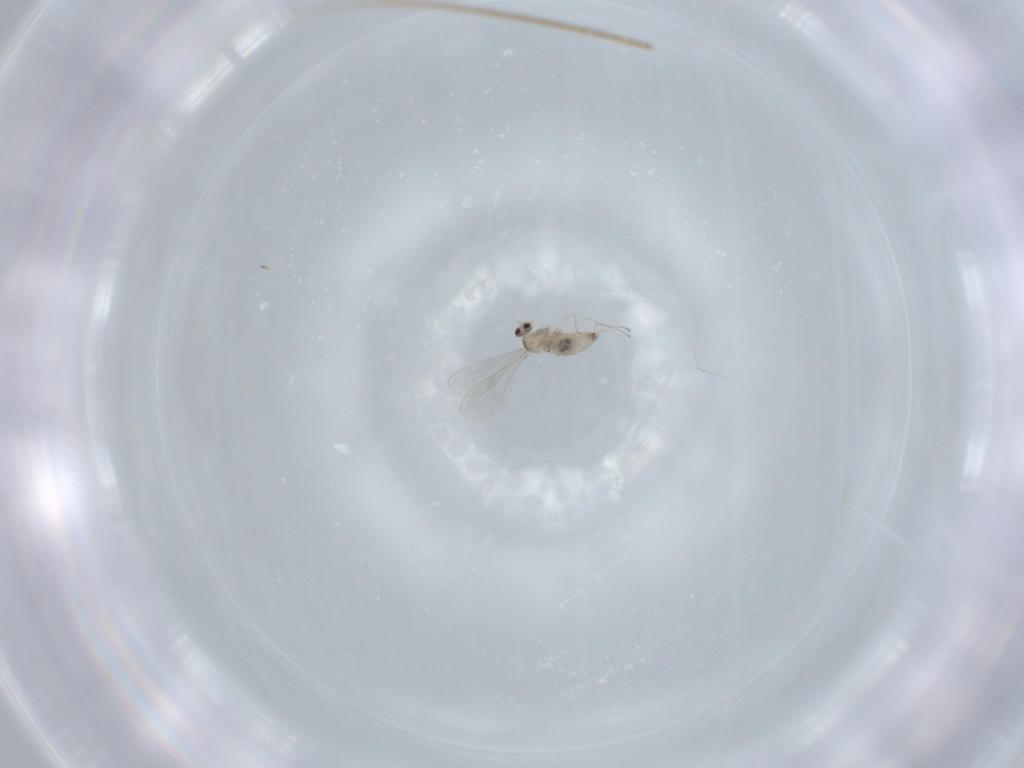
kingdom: Animalia
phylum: Arthropoda
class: Insecta
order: Diptera
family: Cecidomyiidae
